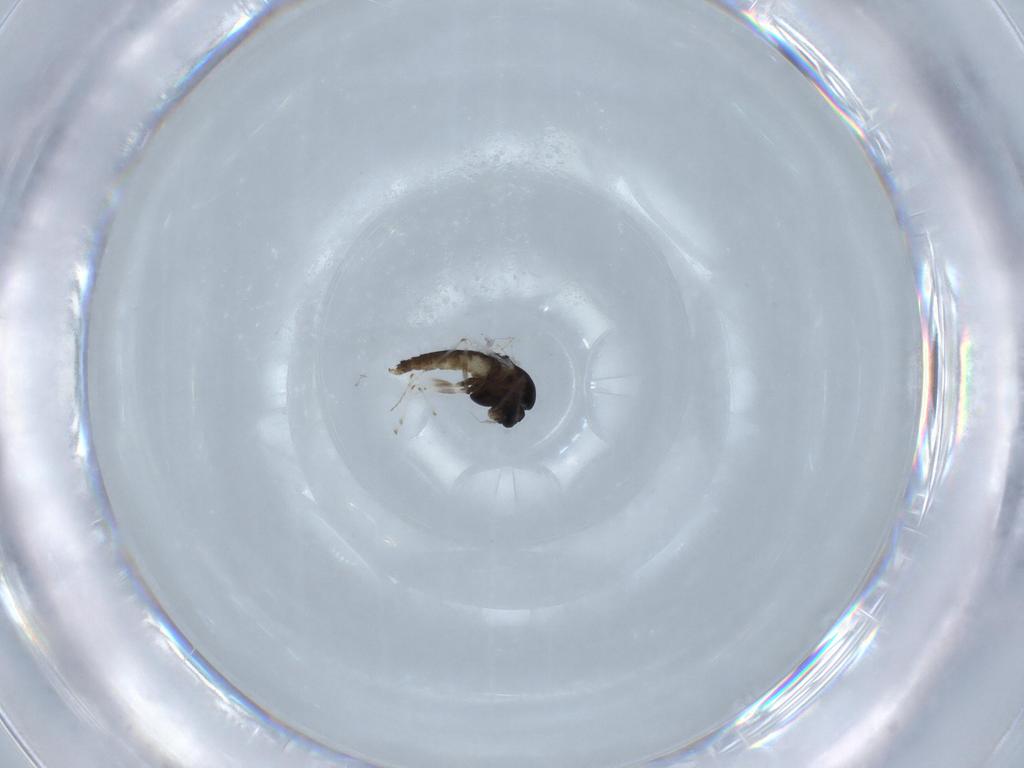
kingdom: Animalia
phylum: Arthropoda
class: Insecta
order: Diptera
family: Chironomidae
